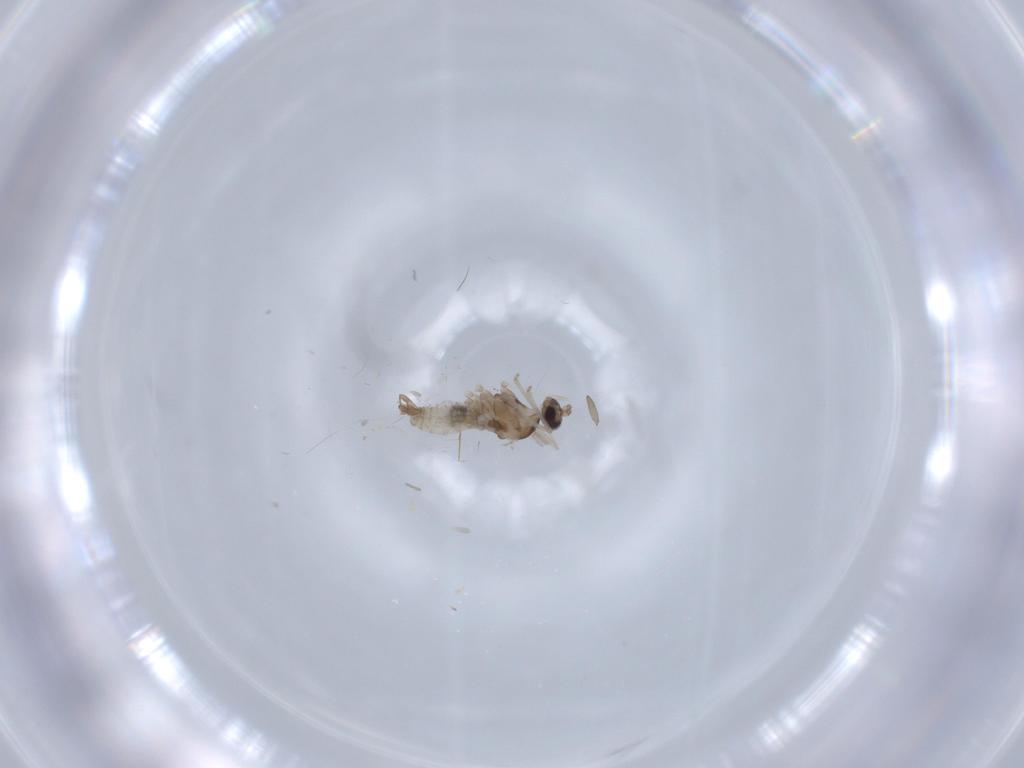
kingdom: Animalia
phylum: Arthropoda
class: Insecta
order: Diptera
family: Cecidomyiidae
